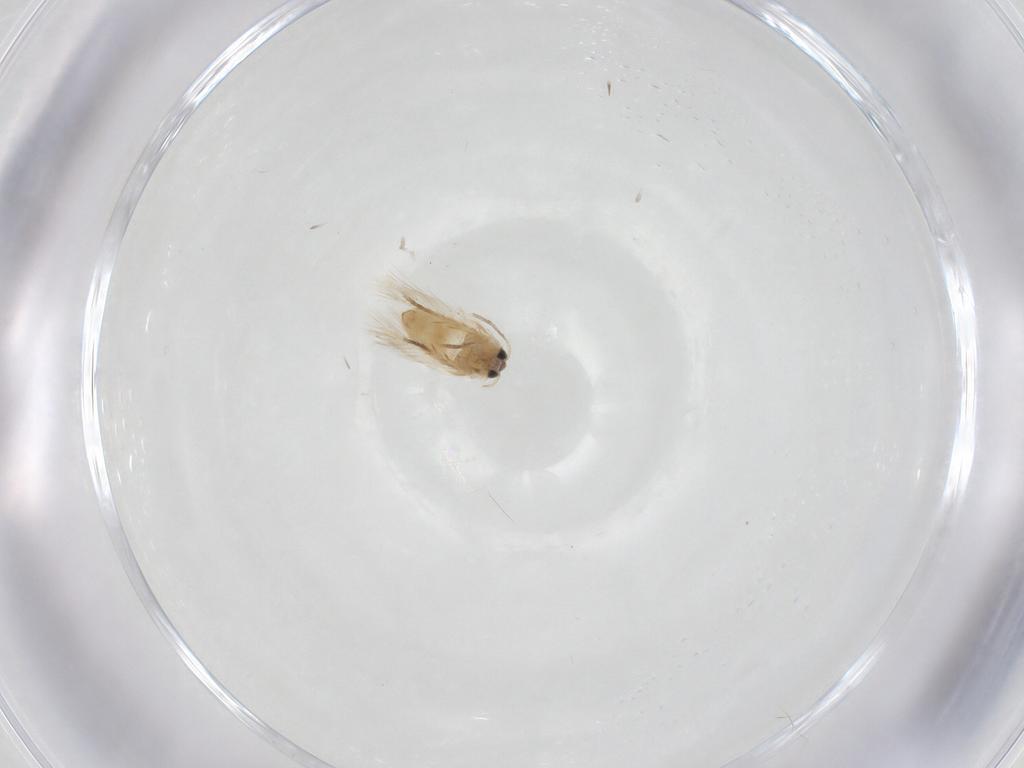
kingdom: Animalia
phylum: Arthropoda
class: Insecta
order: Lepidoptera
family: Crambidae
